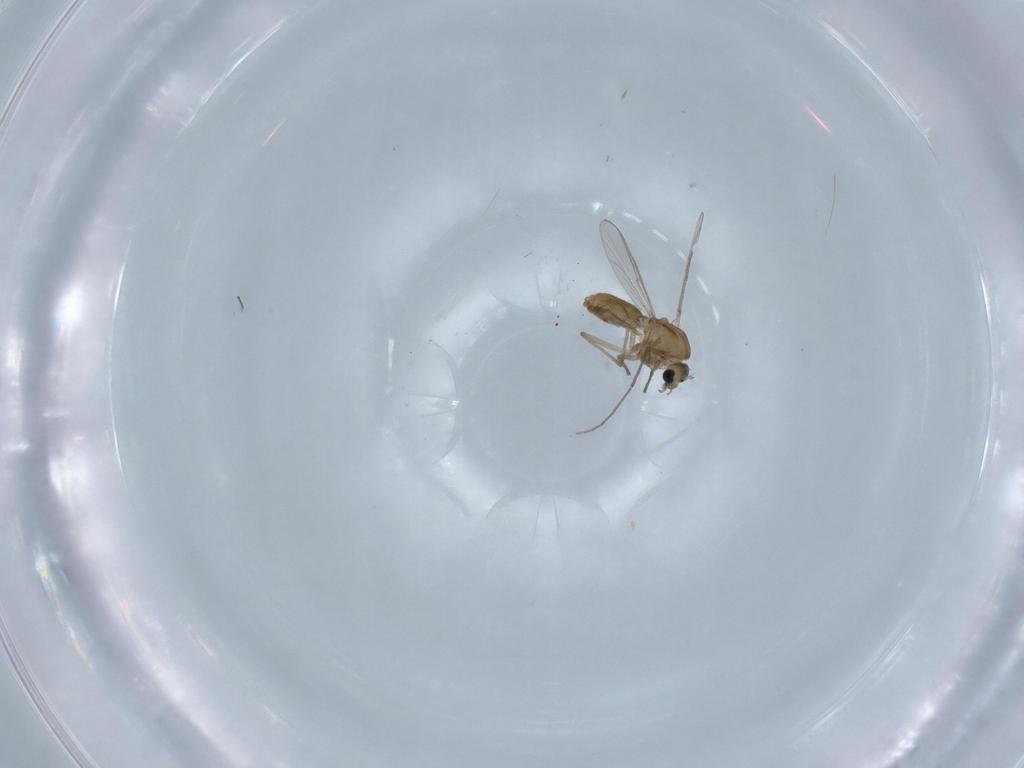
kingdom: Animalia
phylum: Arthropoda
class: Insecta
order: Diptera
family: Chironomidae
